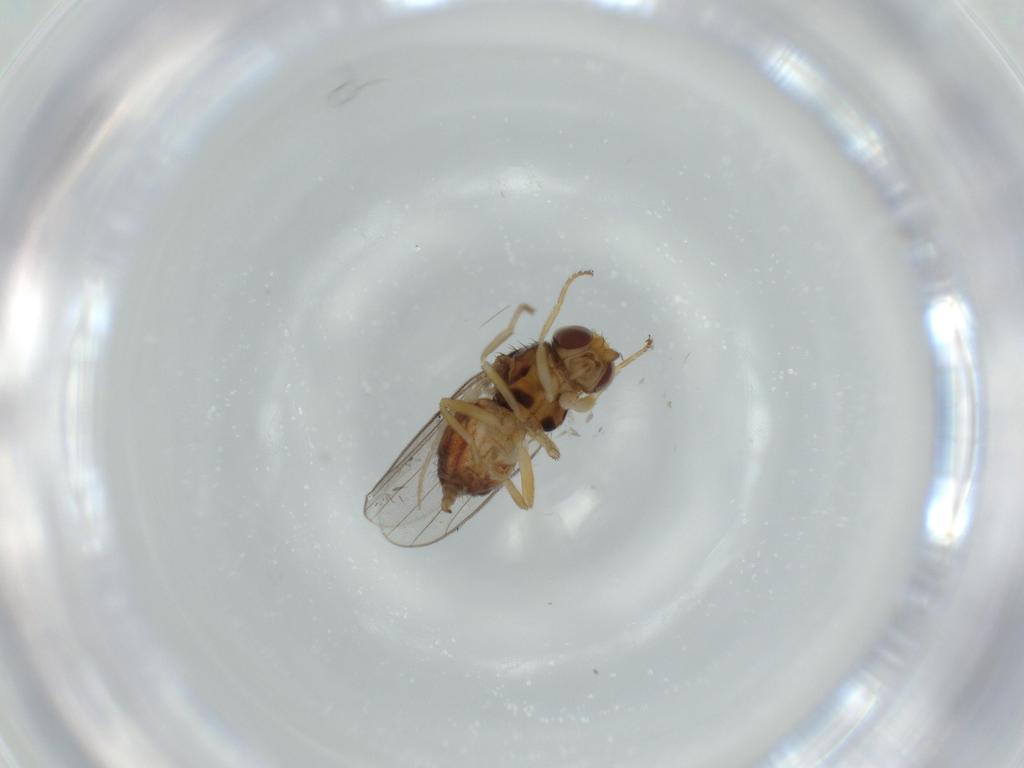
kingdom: Animalia
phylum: Arthropoda
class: Insecta
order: Diptera
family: Chloropidae
